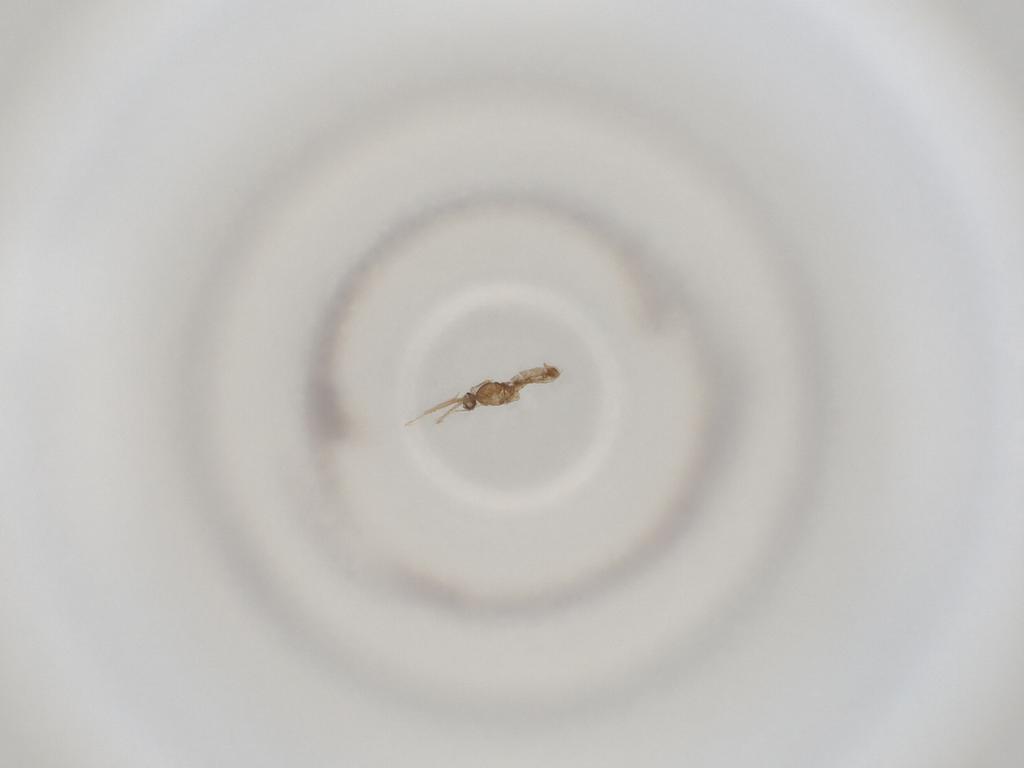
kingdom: Animalia
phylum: Arthropoda
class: Insecta
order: Diptera
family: Cecidomyiidae
